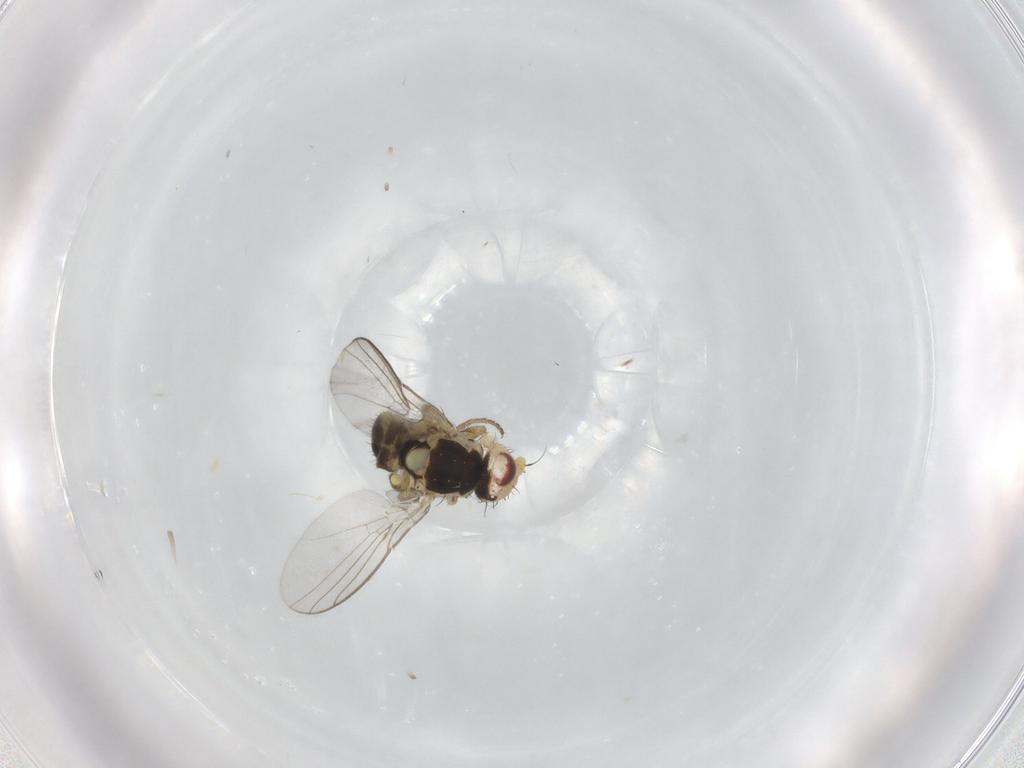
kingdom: Animalia
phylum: Arthropoda
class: Insecta
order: Diptera
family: Agromyzidae
